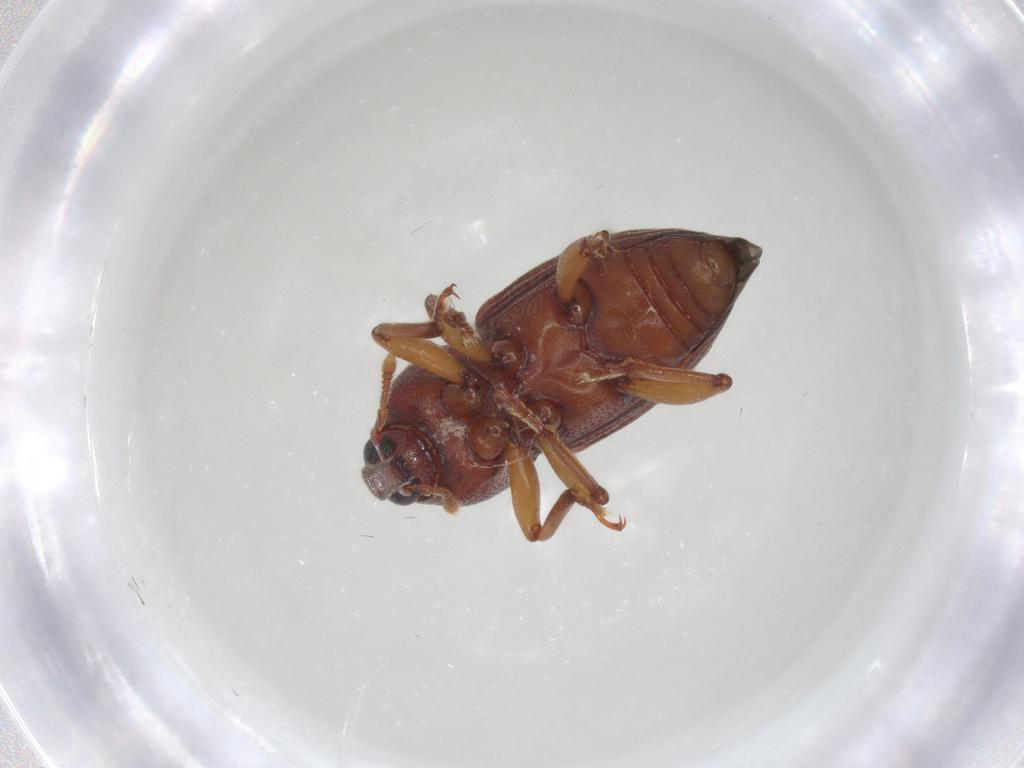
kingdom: Animalia
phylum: Arthropoda
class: Insecta
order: Coleoptera
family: Curculionidae
